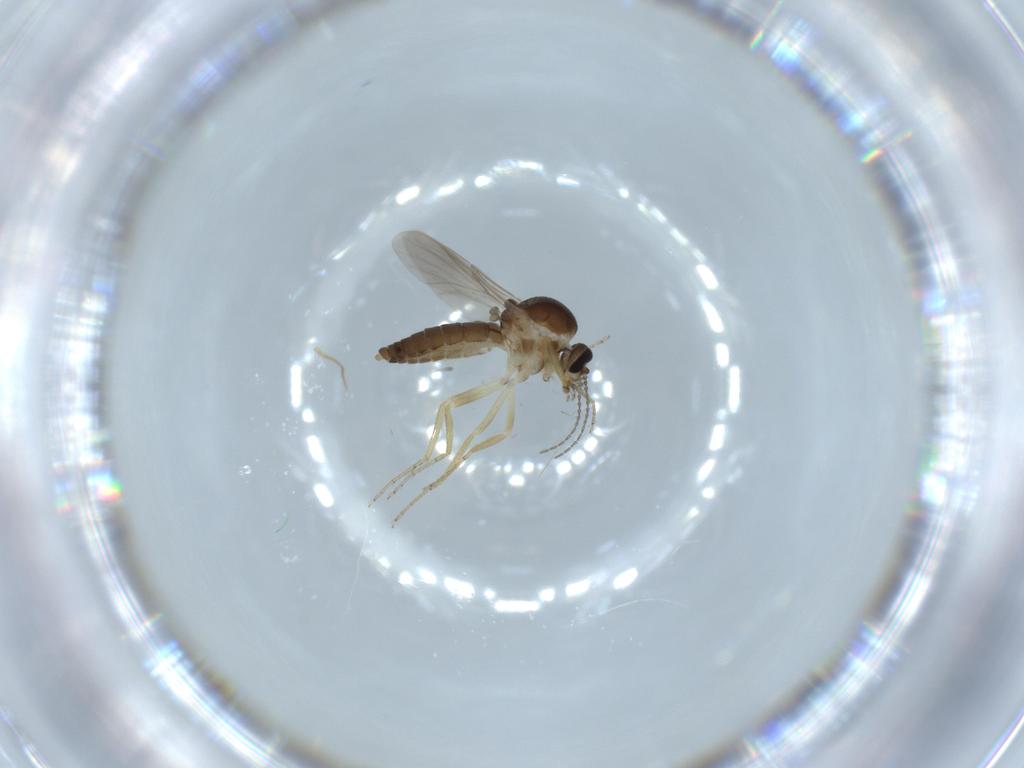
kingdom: Animalia
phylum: Arthropoda
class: Insecta
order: Diptera
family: Ceratopogonidae
